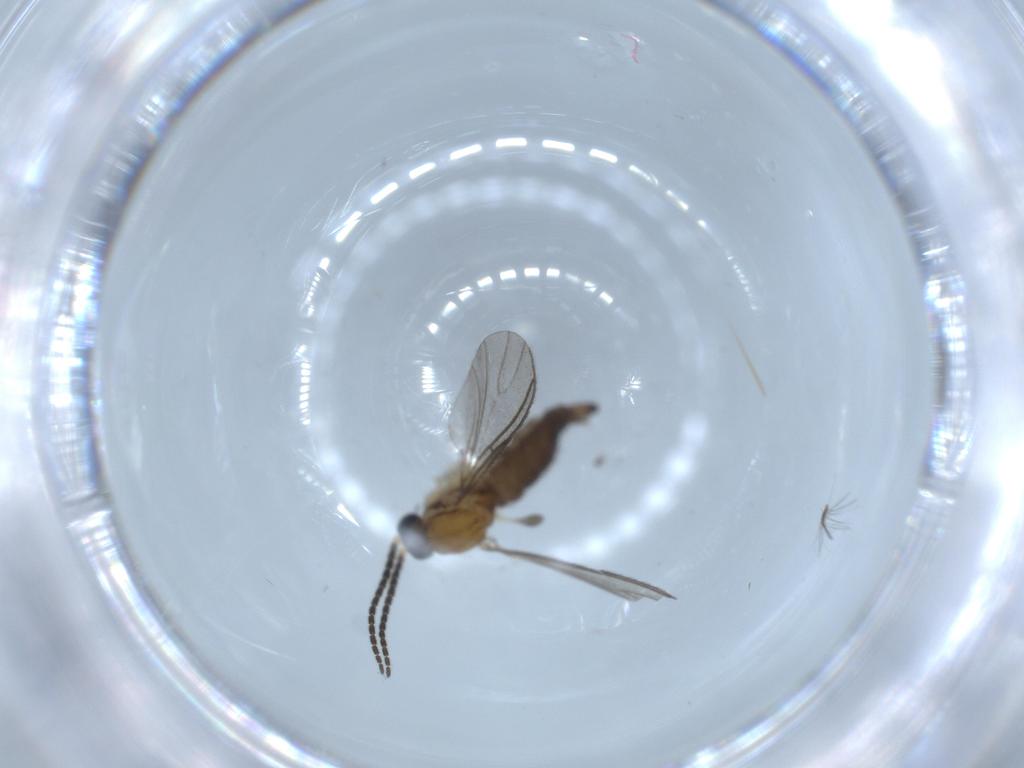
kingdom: Animalia
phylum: Arthropoda
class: Insecta
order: Diptera
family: Sciaridae
